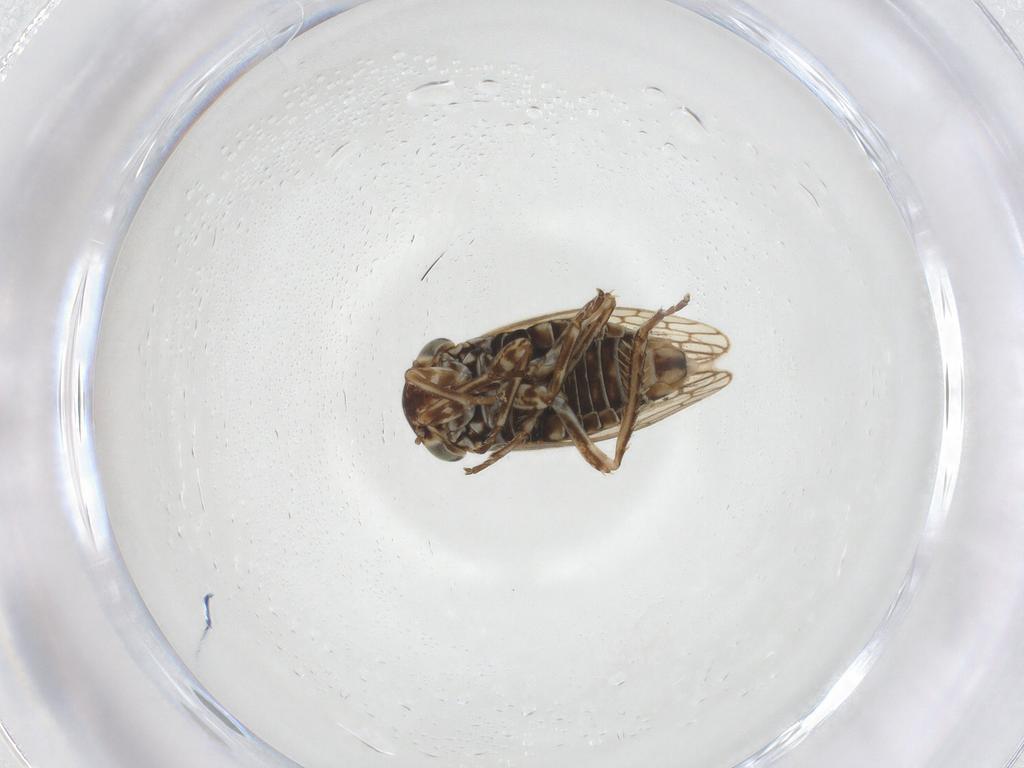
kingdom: Animalia
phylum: Arthropoda
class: Insecta
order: Hemiptera
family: Cicadellidae
